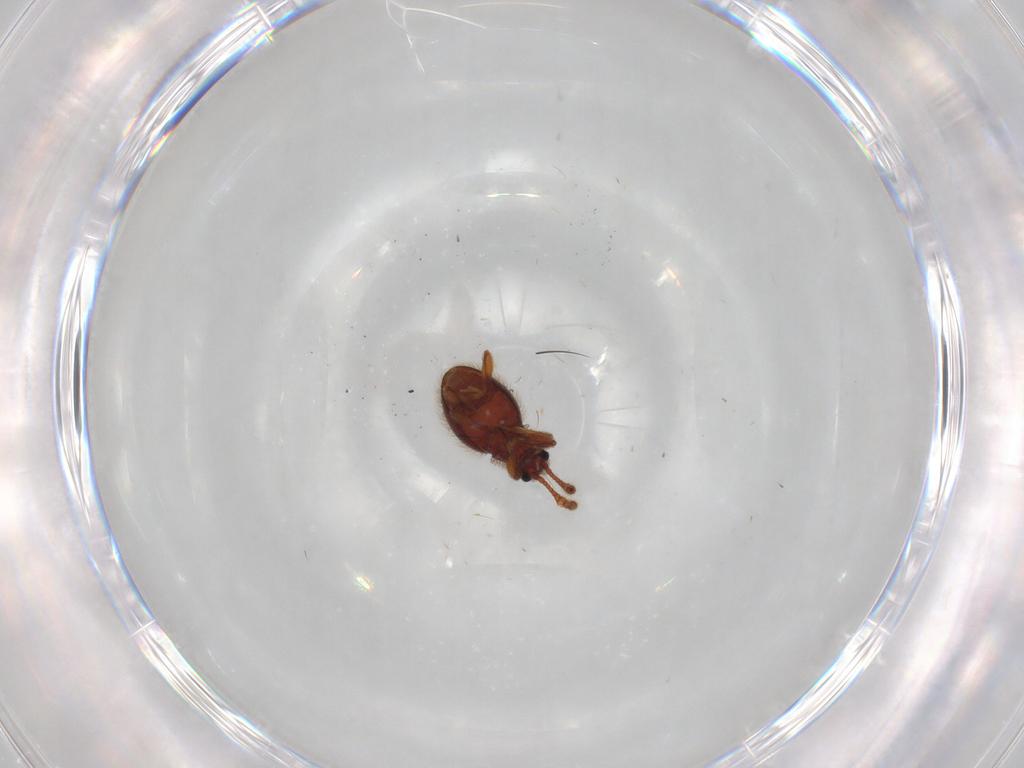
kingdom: Animalia
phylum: Arthropoda
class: Insecta
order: Coleoptera
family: Staphylinidae
